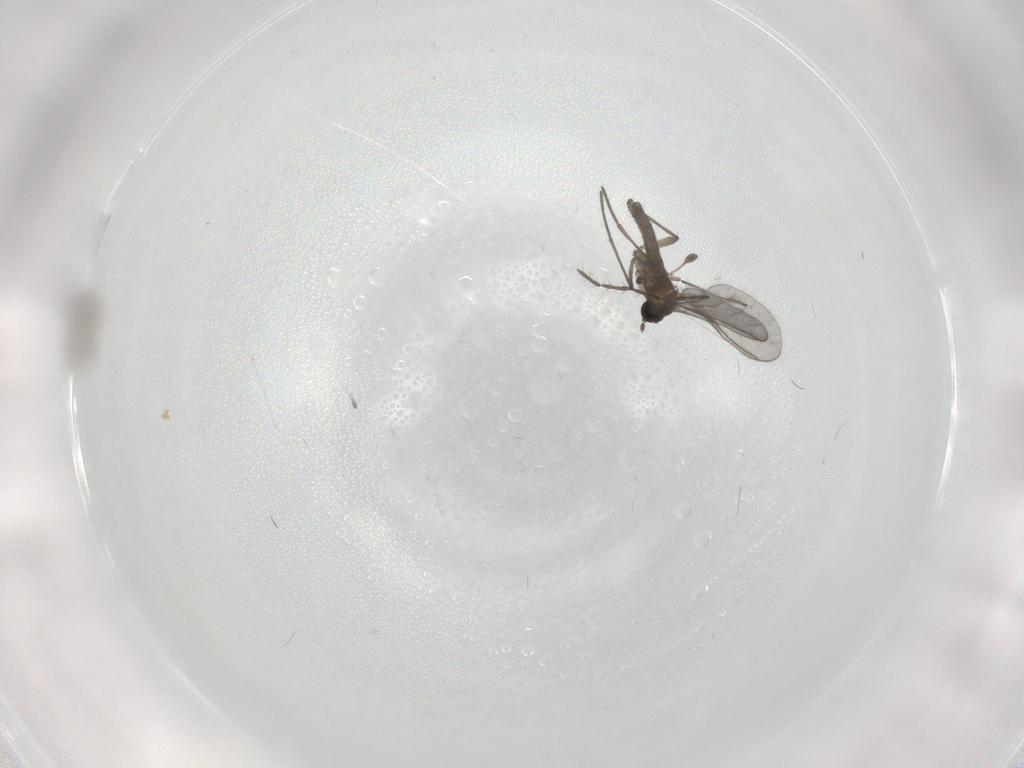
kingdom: Animalia
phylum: Arthropoda
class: Insecta
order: Diptera
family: Cecidomyiidae
